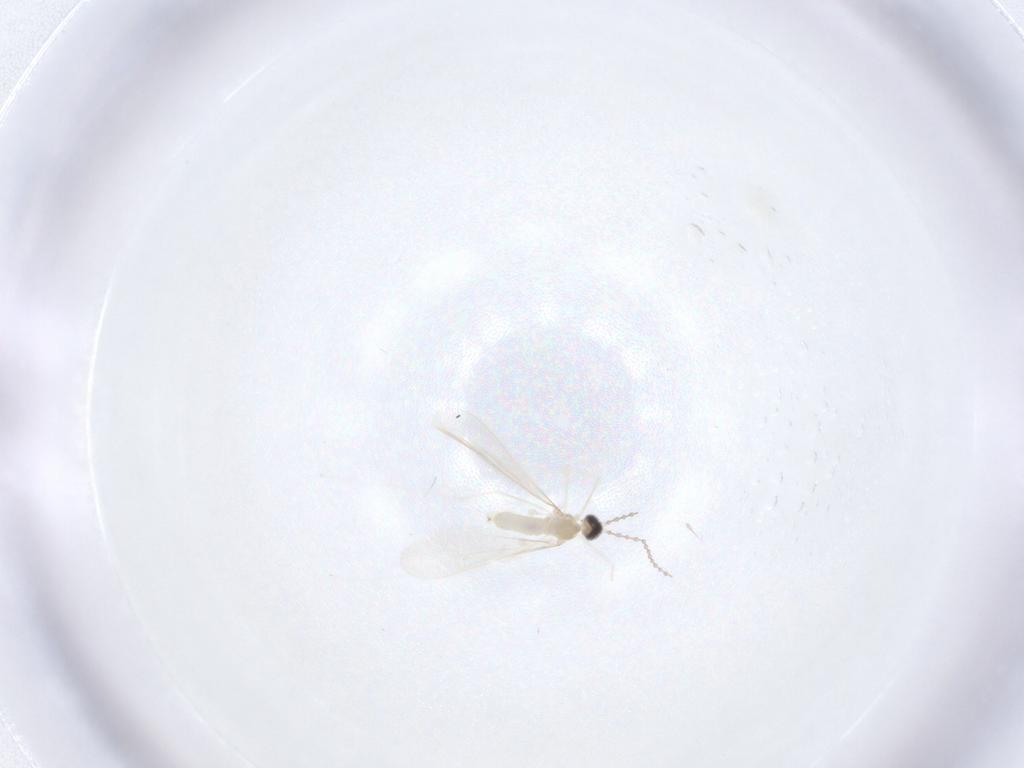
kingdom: Animalia
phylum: Arthropoda
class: Insecta
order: Diptera
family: Cecidomyiidae
